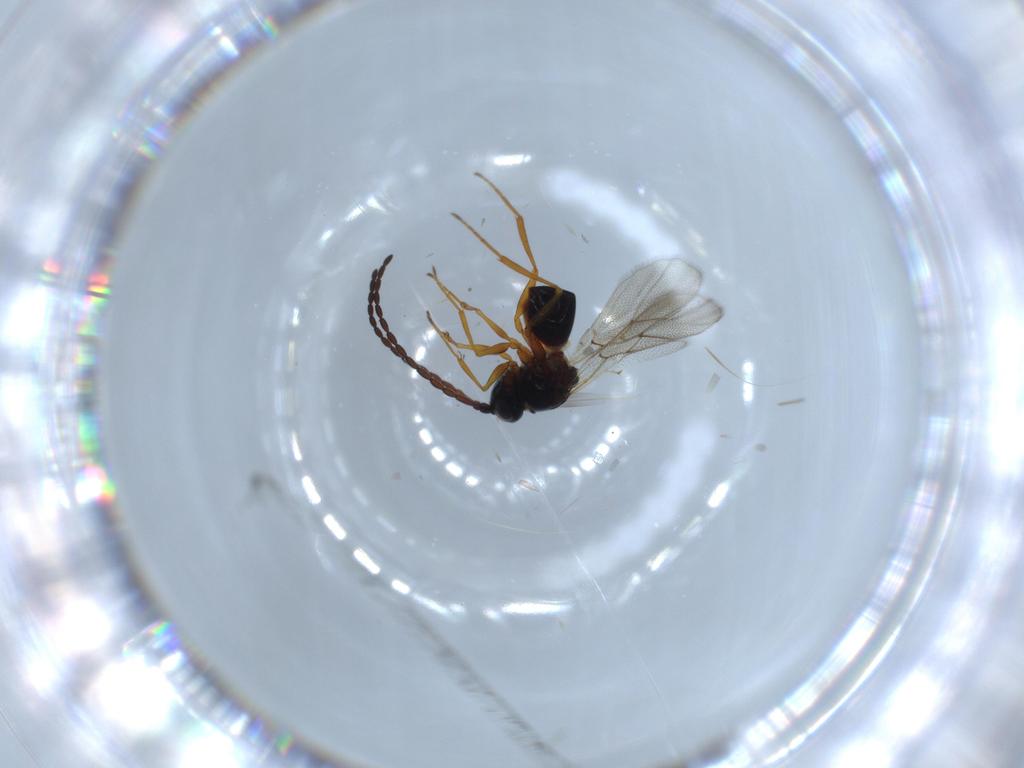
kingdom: Animalia
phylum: Arthropoda
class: Insecta
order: Hymenoptera
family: Figitidae
